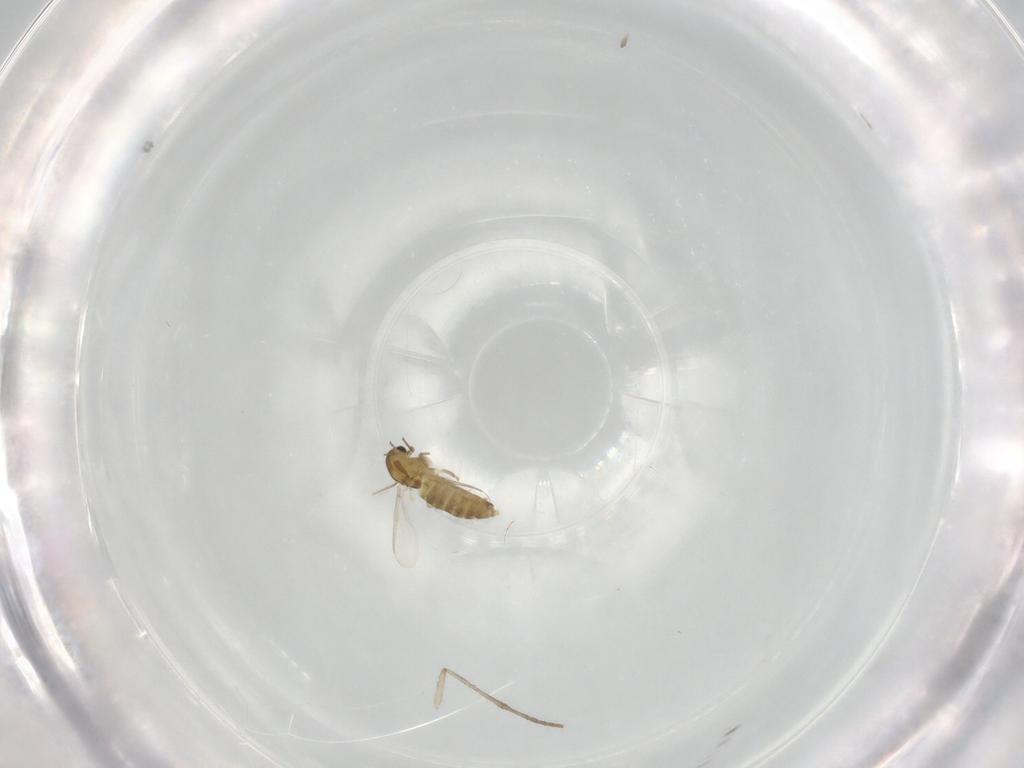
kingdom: Animalia
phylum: Arthropoda
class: Insecta
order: Diptera
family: Chironomidae
